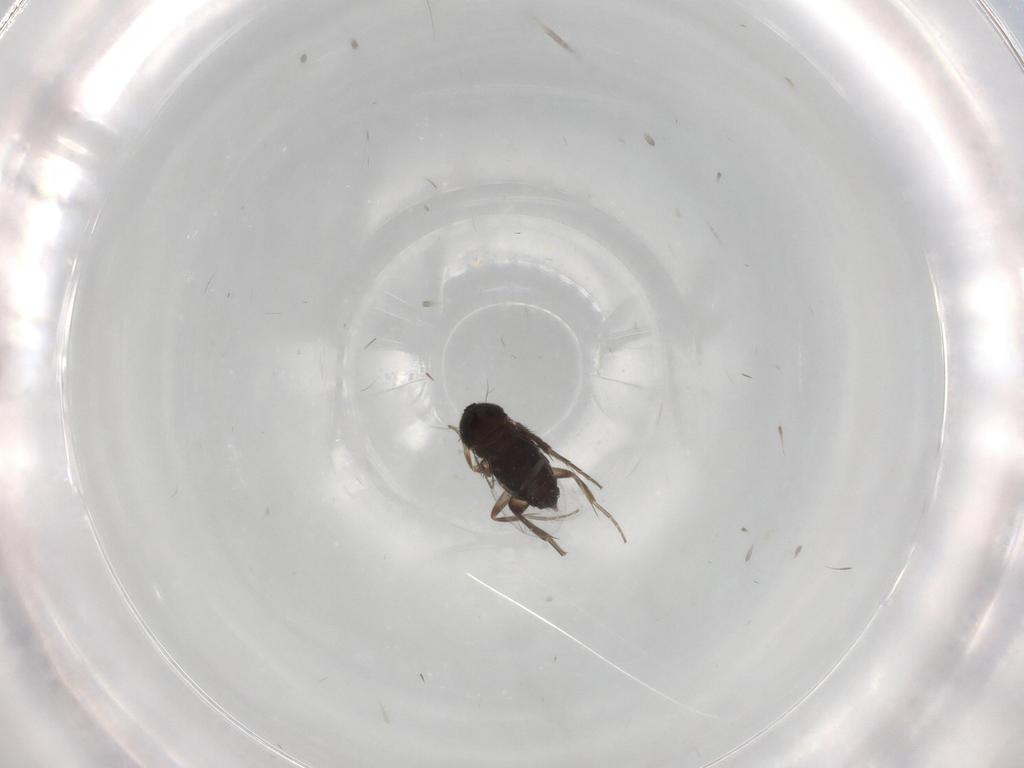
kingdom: Animalia
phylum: Arthropoda
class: Insecta
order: Diptera
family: Phoridae
